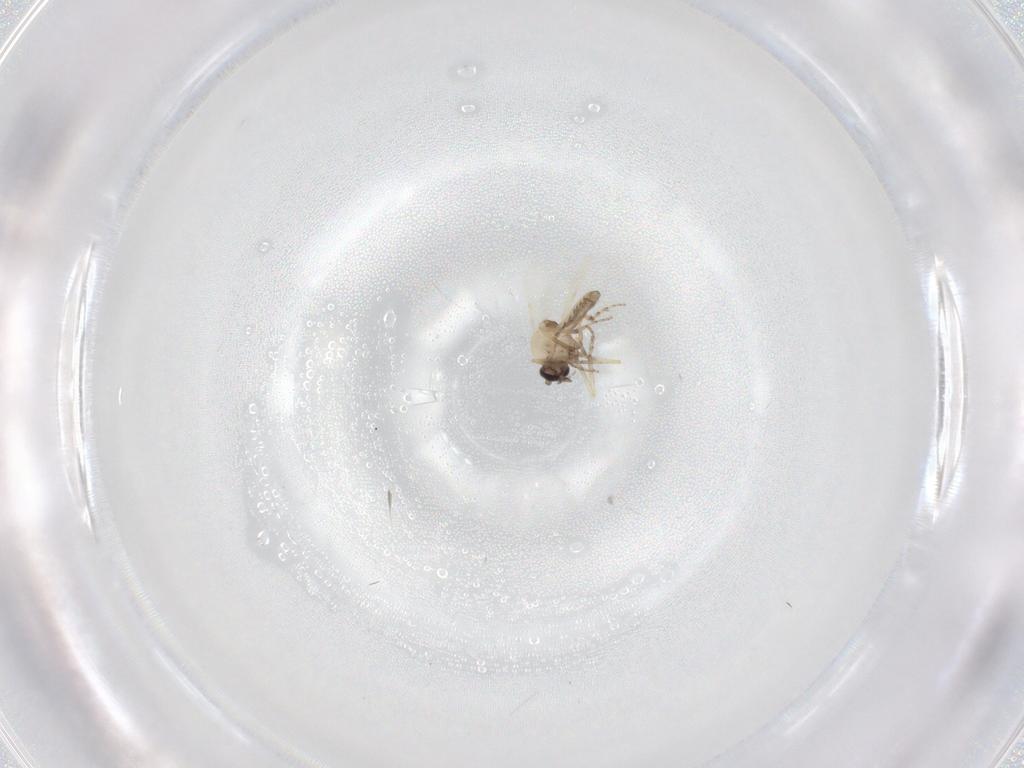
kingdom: Animalia
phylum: Arthropoda
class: Insecta
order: Diptera
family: Ceratopogonidae
